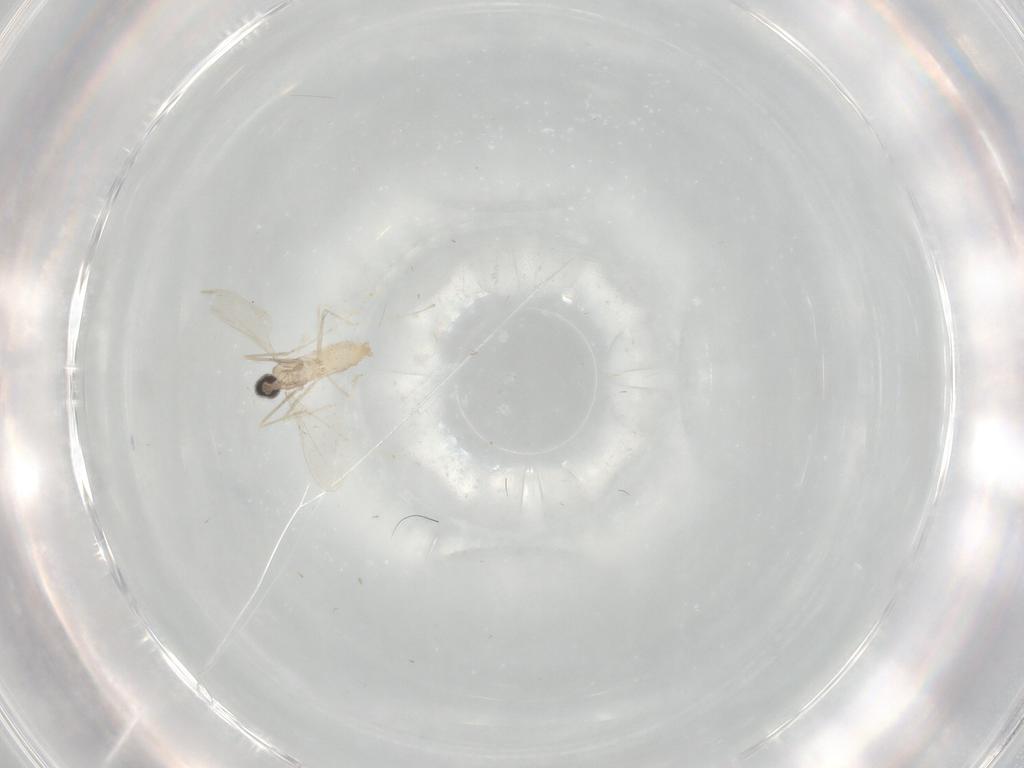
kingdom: Animalia
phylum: Arthropoda
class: Insecta
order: Diptera
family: Cecidomyiidae
